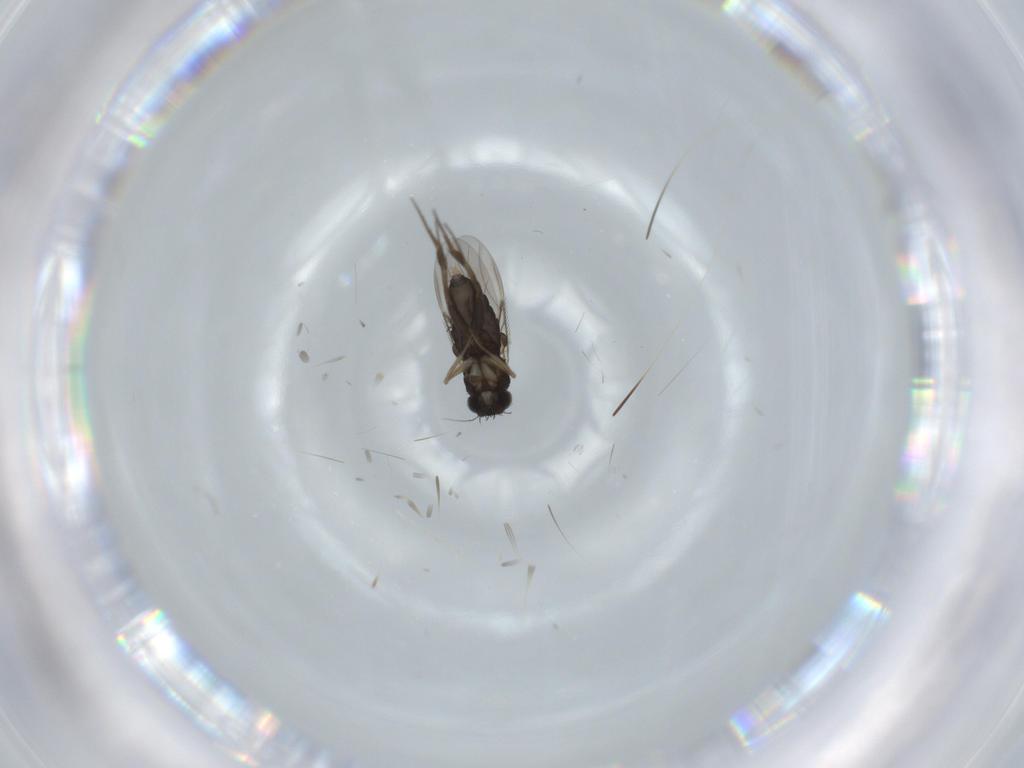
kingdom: Animalia
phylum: Arthropoda
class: Insecta
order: Diptera
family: Phoridae
